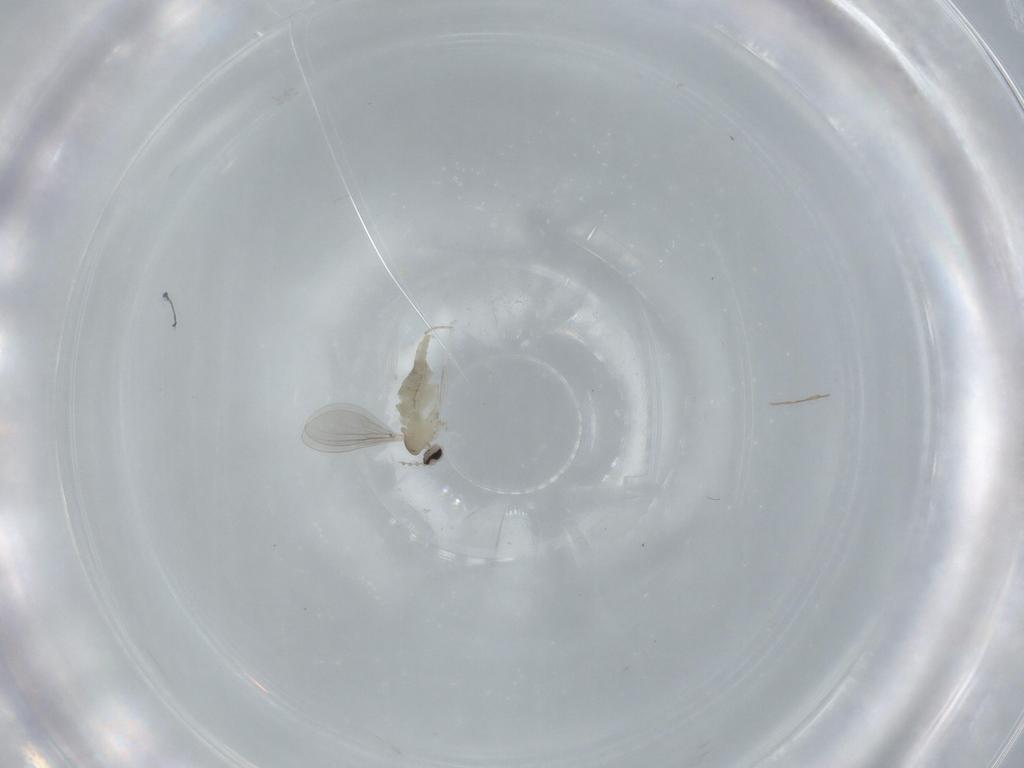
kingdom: Animalia
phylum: Arthropoda
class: Insecta
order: Diptera
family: Cecidomyiidae
